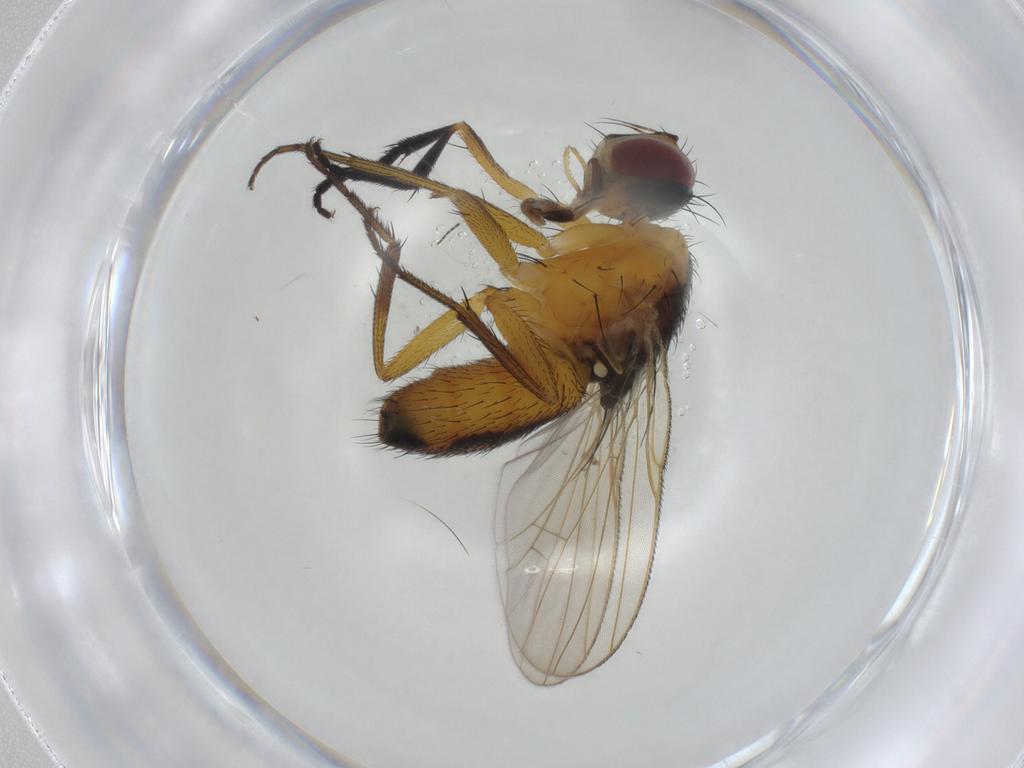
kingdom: Animalia
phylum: Arthropoda
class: Insecta
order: Diptera
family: Muscidae
